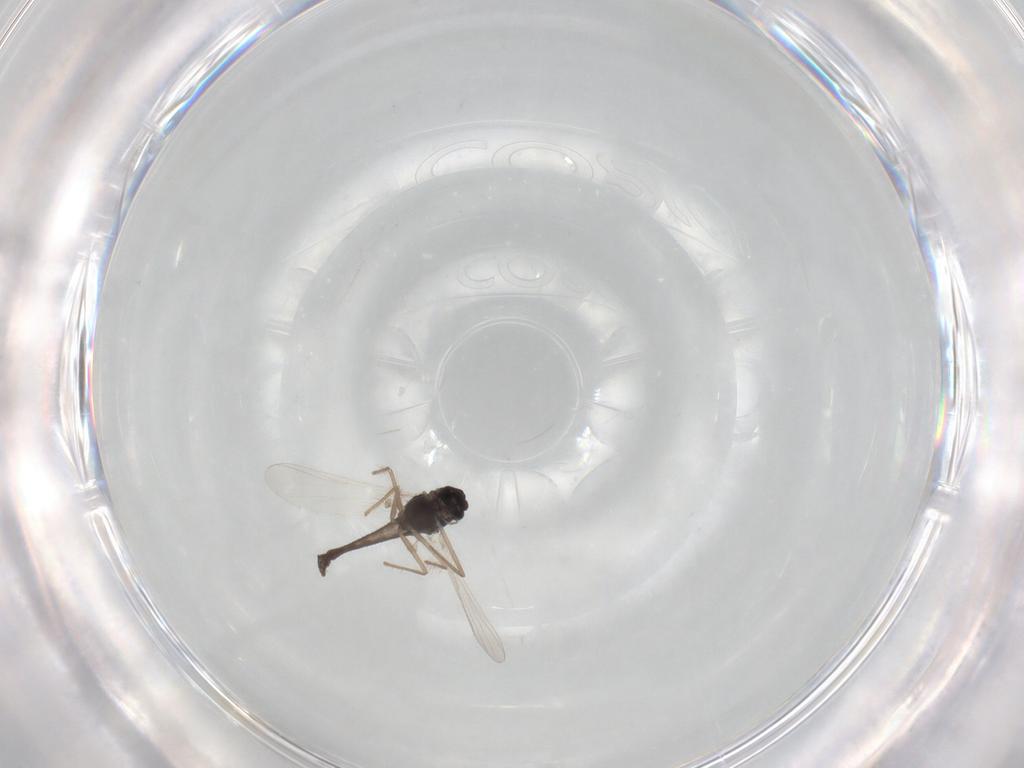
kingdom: Animalia
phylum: Arthropoda
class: Insecta
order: Diptera
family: Chironomidae
